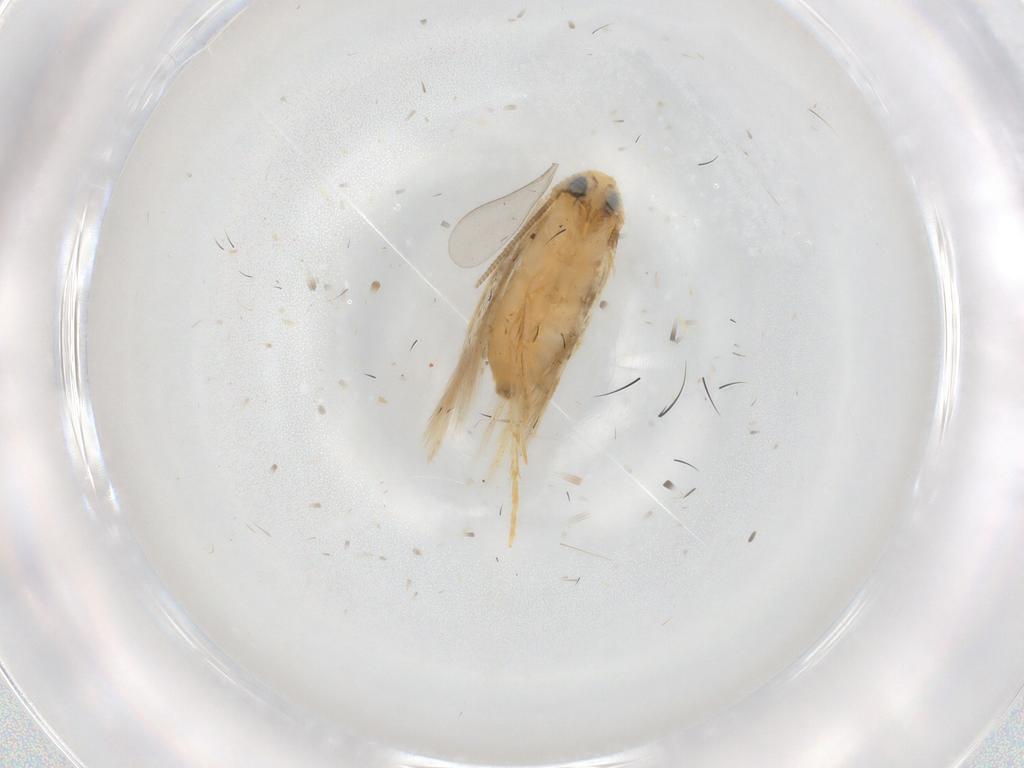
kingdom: Animalia
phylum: Arthropoda
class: Insecta
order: Lepidoptera
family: Opostegidae
